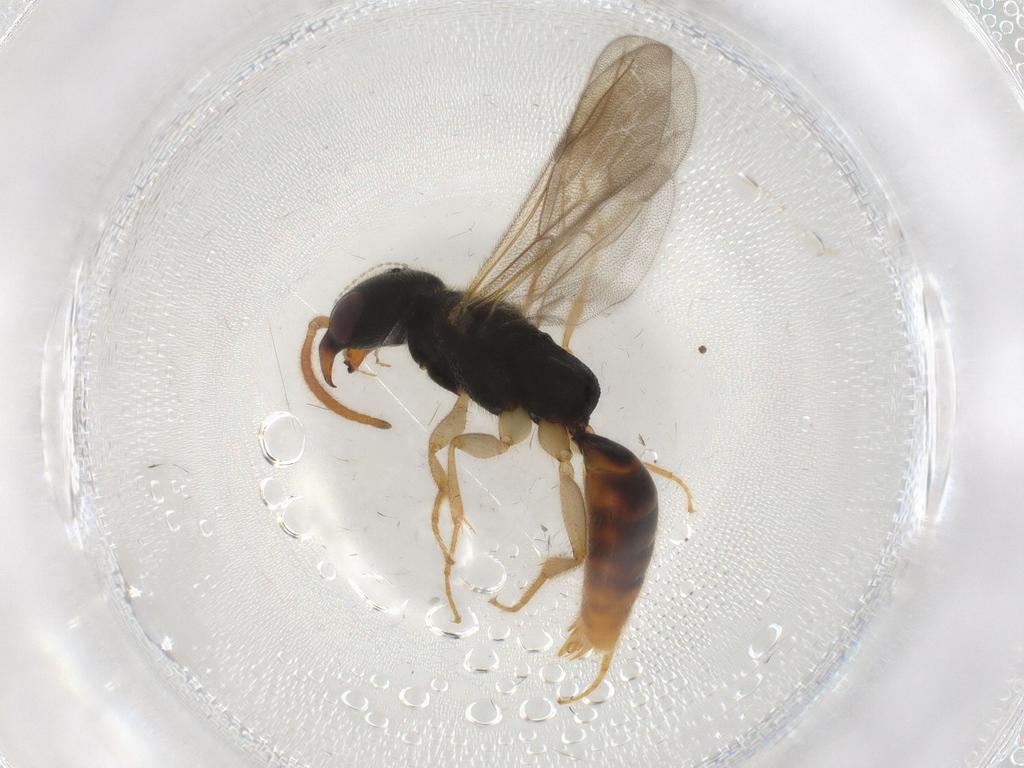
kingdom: Animalia
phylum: Arthropoda
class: Insecta
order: Hymenoptera
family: Bethylidae
